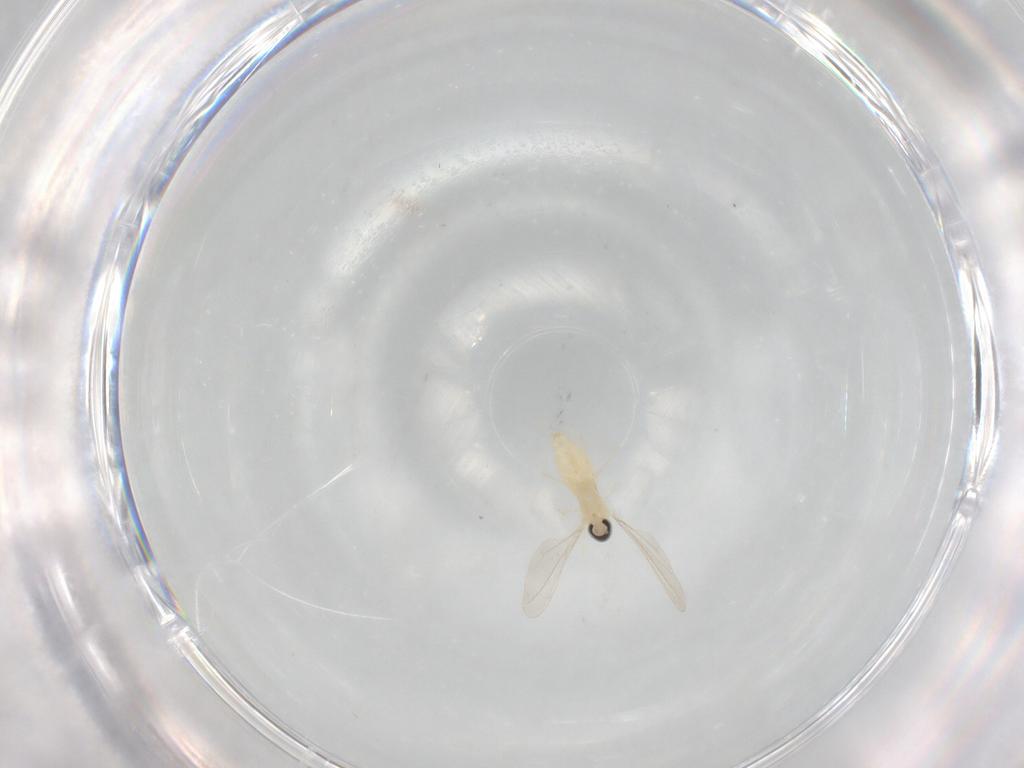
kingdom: Animalia
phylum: Arthropoda
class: Insecta
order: Diptera
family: Cecidomyiidae
